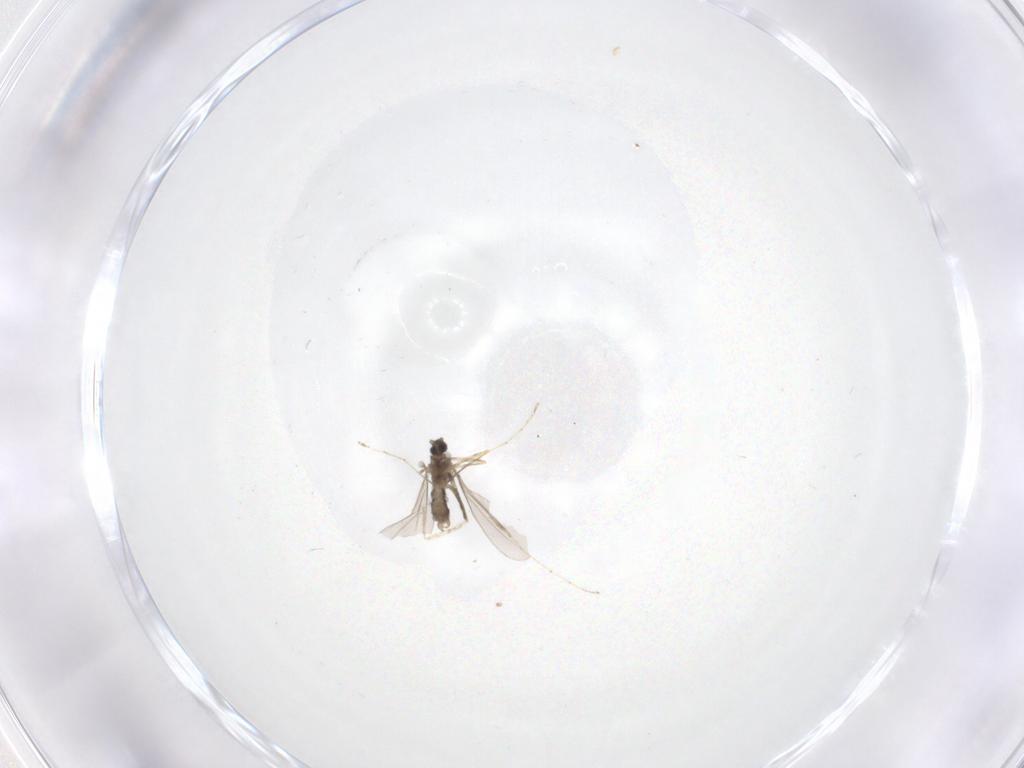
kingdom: Animalia
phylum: Arthropoda
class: Insecta
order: Diptera
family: Cecidomyiidae
